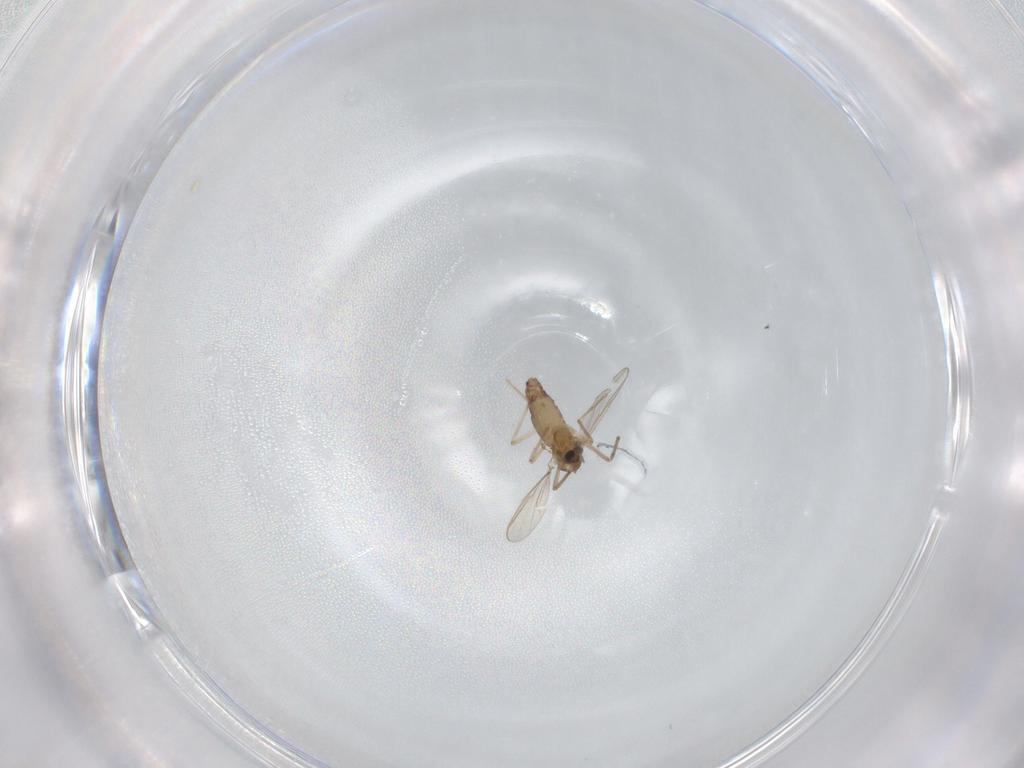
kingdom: Animalia
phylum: Arthropoda
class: Insecta
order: Diptera
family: Chironomidae
